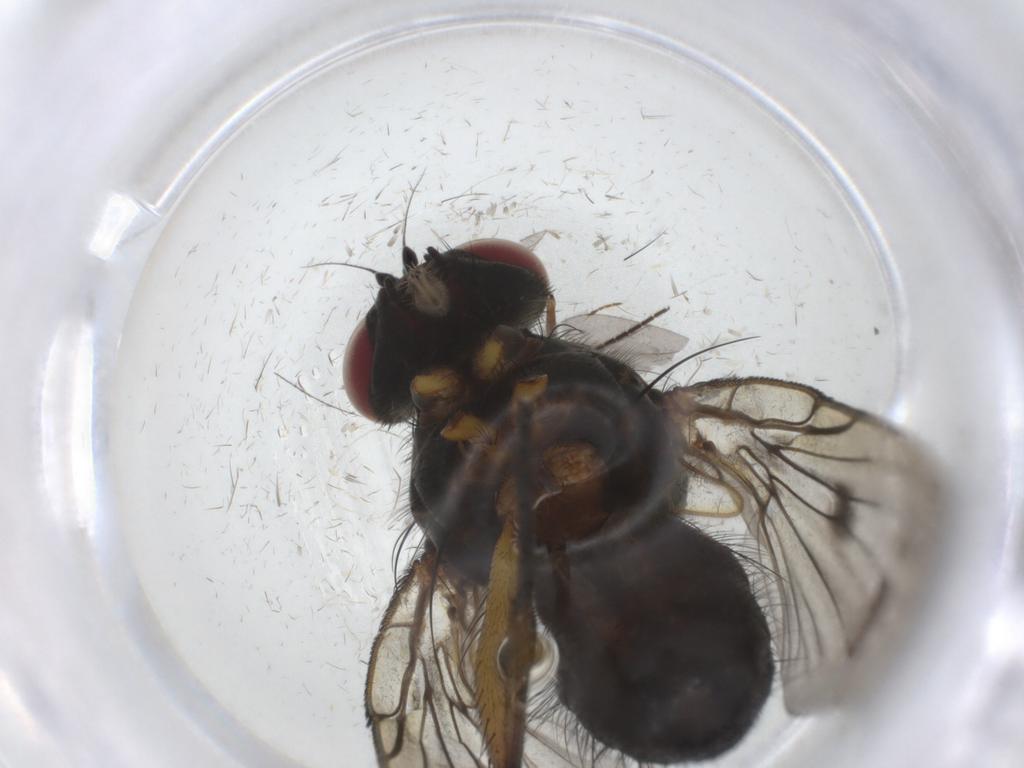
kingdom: Animalia
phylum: Arthropoda
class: Insecta
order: Diptera
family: Muscidae
